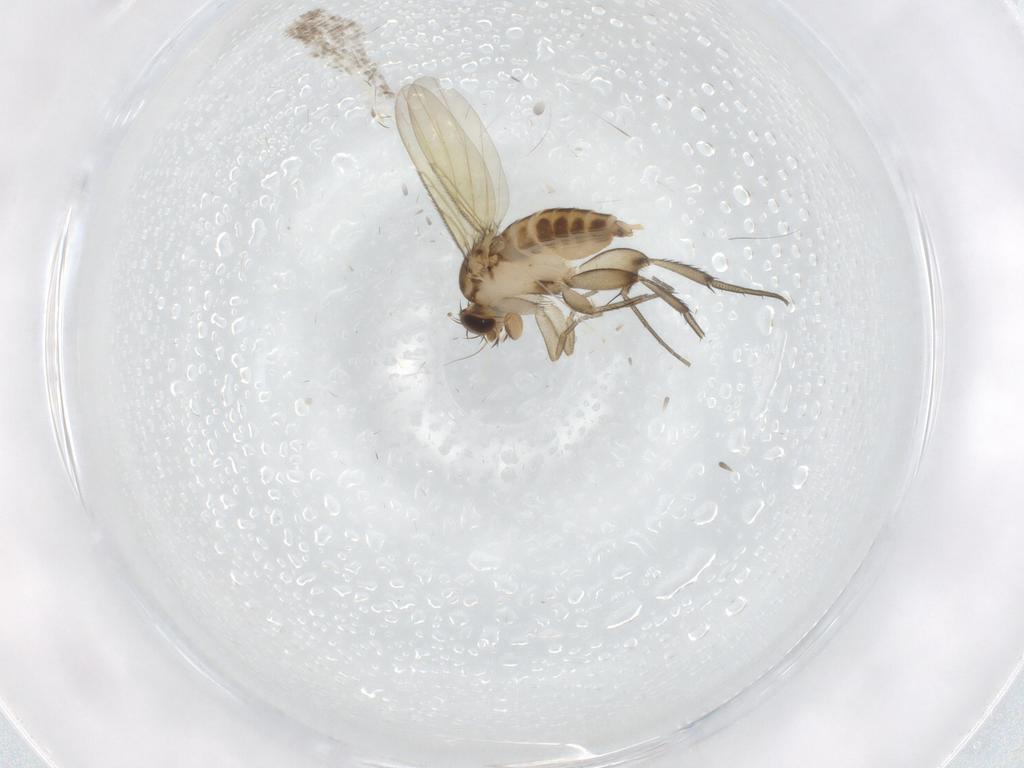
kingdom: Animalia
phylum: Arthropoda
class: Insecta
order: Diptera
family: Phoridae
